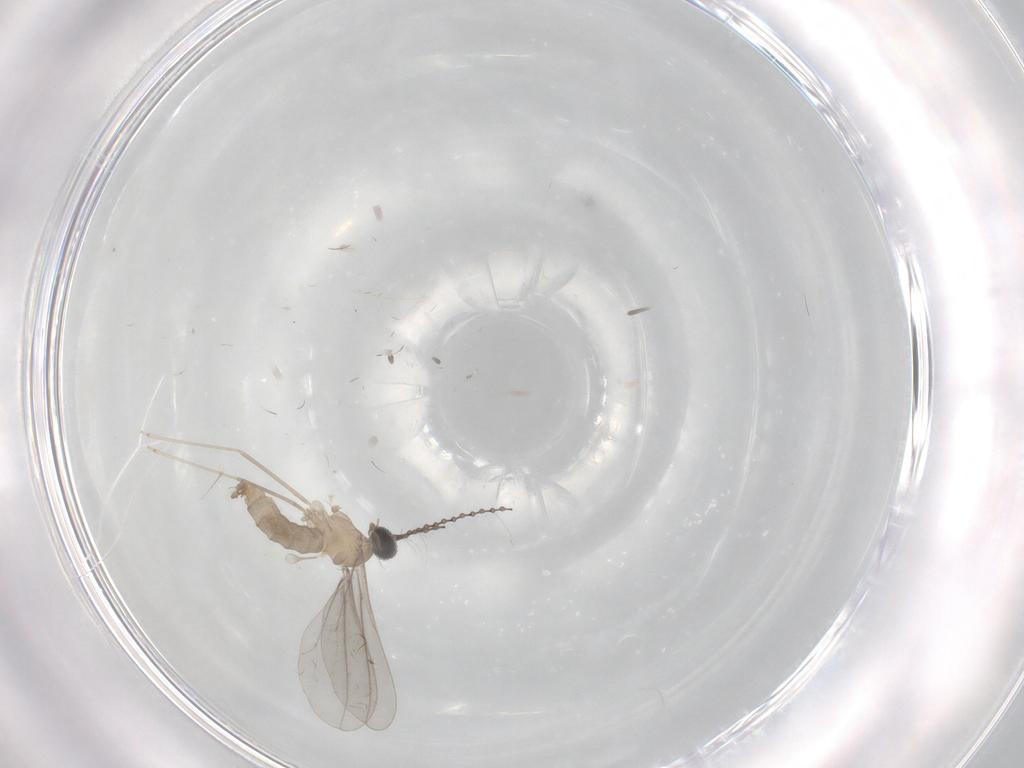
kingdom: Animalia
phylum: Arthropoda
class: Insecta
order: Diptera
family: Cecidomyiidae
